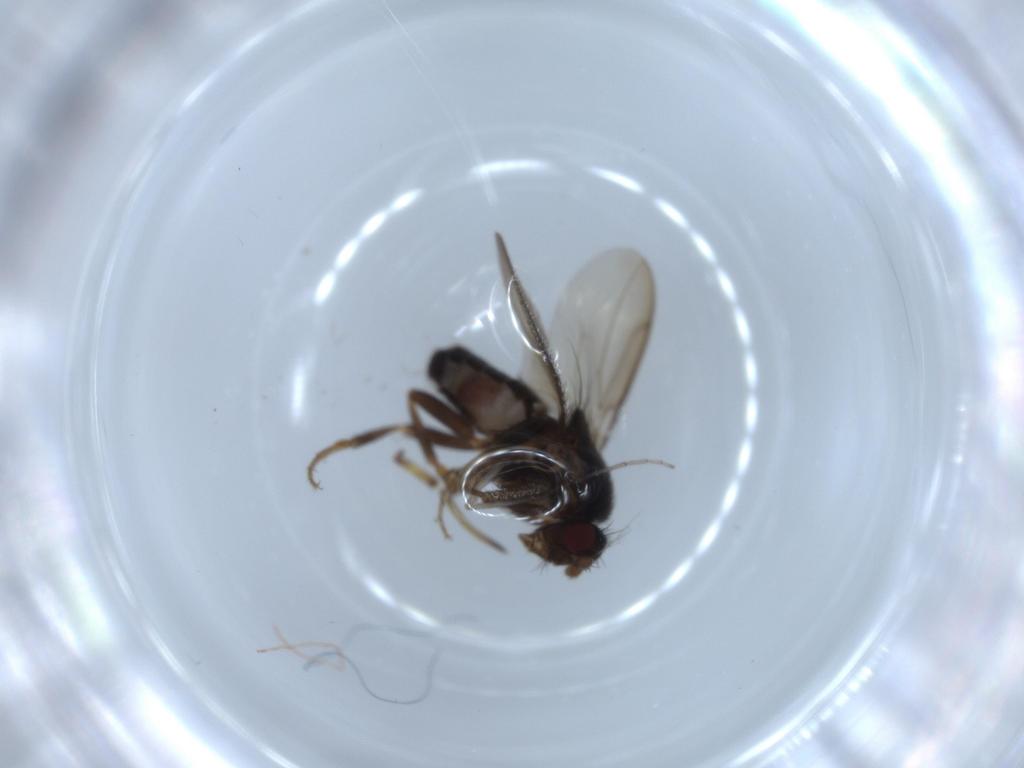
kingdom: Animalia
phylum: Arthropoda
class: Insecta
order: Diptera
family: Sphaeroceridae
